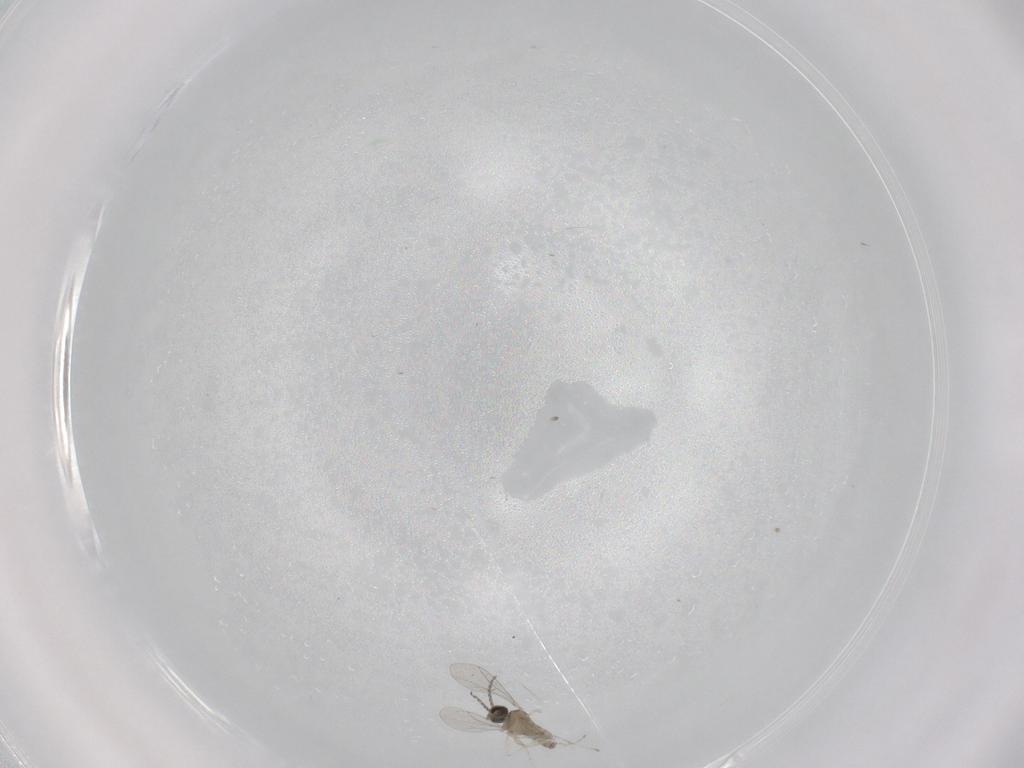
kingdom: Animalia
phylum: Arthropoda
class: Insecta
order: Diptera
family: Cecidomyiidae
